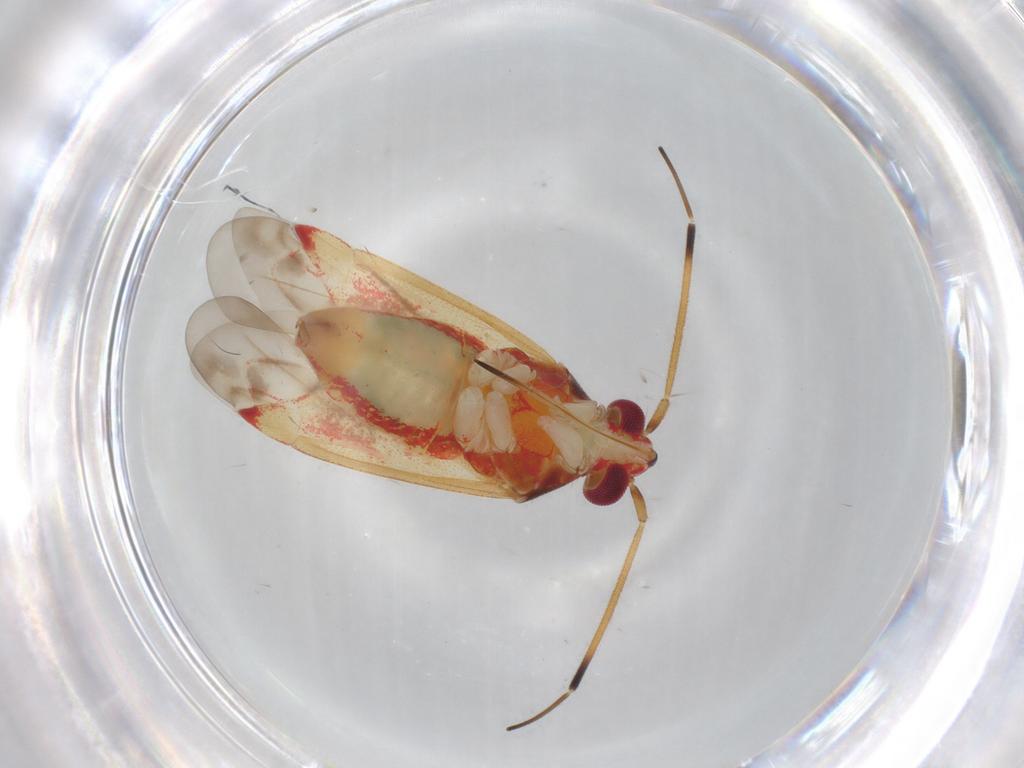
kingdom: Animalia
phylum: Arthropoda
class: Insecta
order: Hemiptera
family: Miridae
